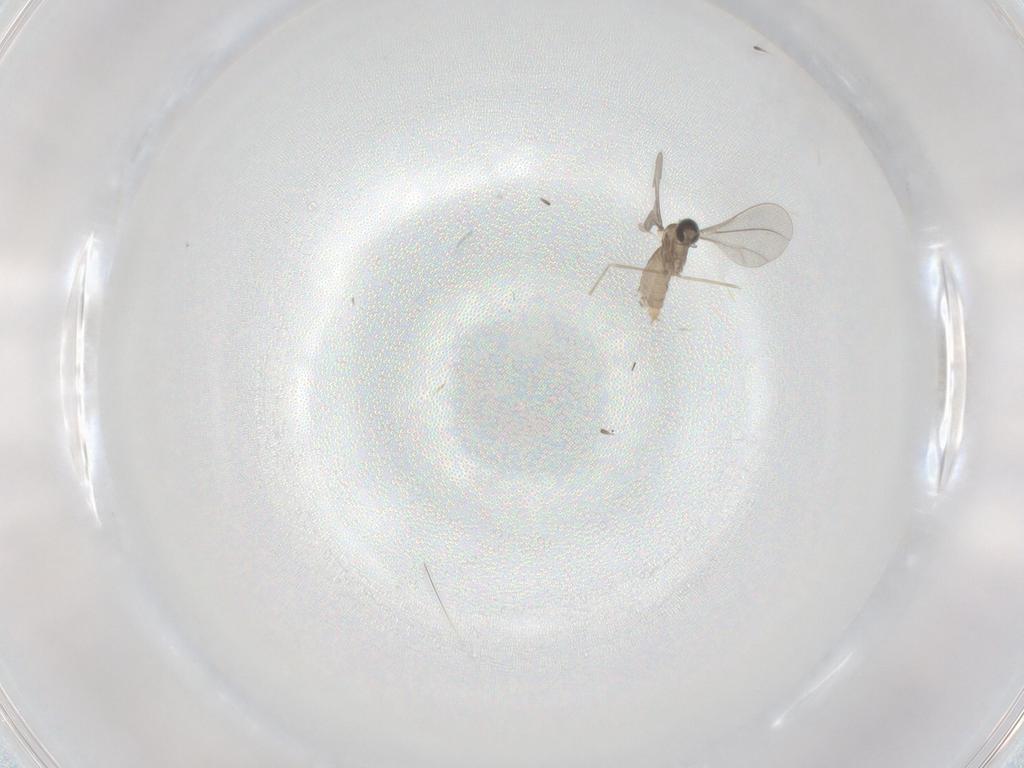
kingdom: Animalia
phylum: Arthropoda
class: Insecta
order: Diptera
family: Cecidomyiidae
